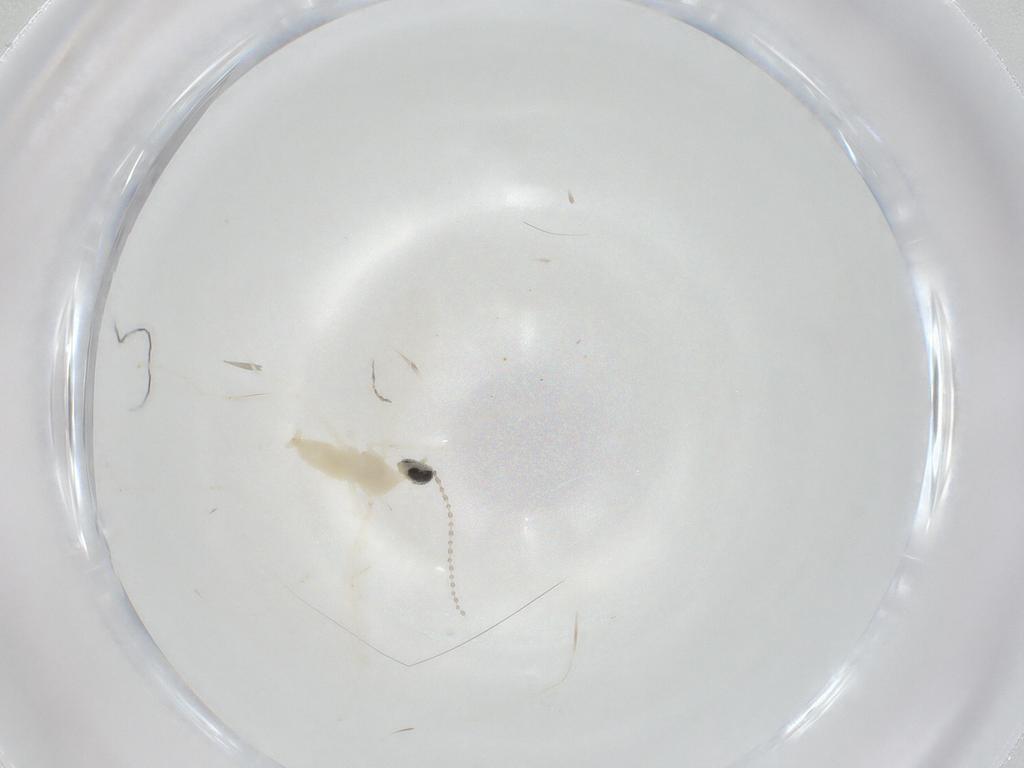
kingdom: Animalia
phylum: Arthropoda
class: Insecta
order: Diptera
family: Cecidomyiidae
